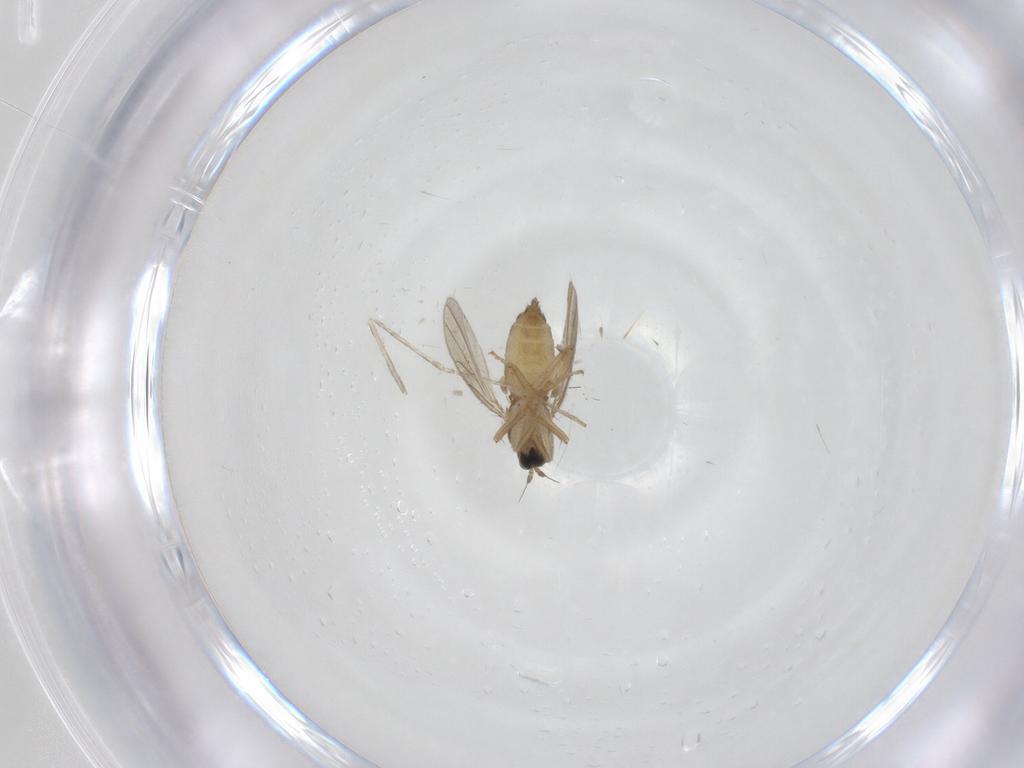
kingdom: Animalia
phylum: Arthropoda
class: Insecta
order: Diptera
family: Hybotidae
